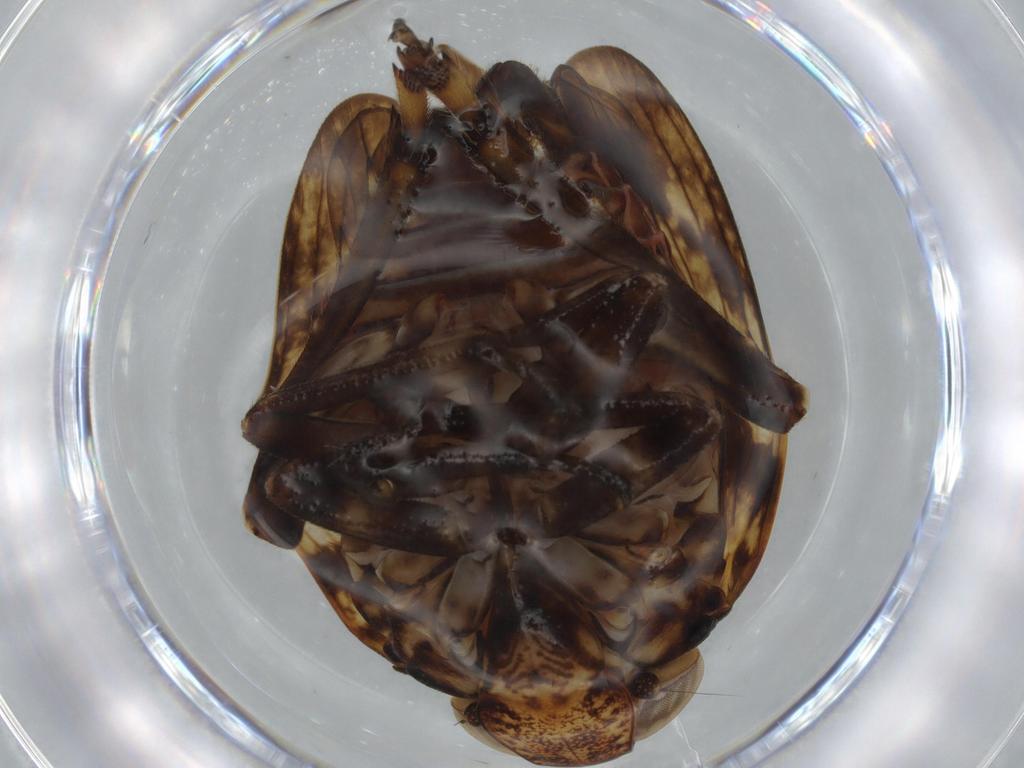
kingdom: Animalia
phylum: Arthropoda
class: Insecta
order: Hemiptera
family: Issidae
